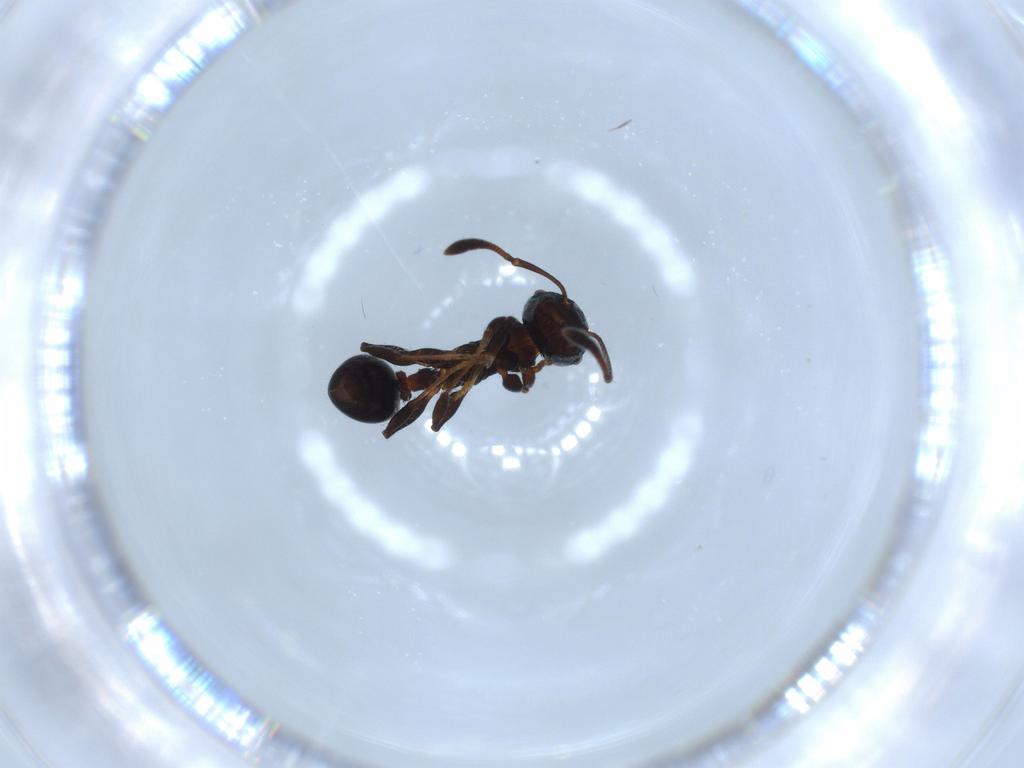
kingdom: Animalia
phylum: Arthropoda
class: Insecta
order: Hymenoptera
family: Formicidae
